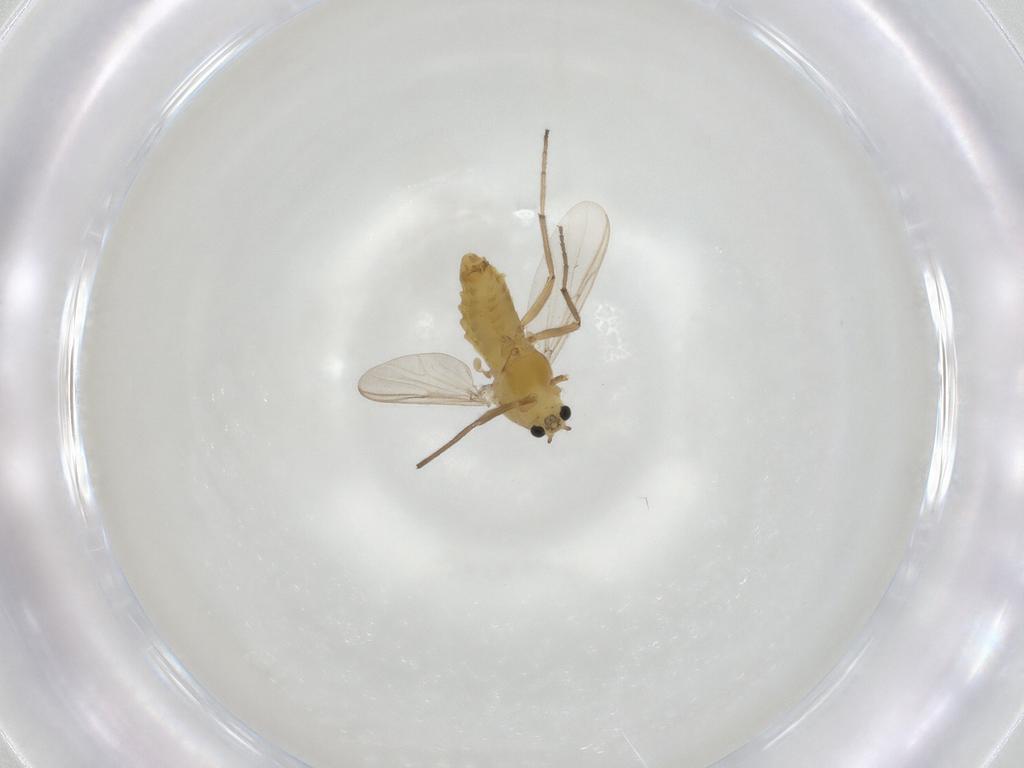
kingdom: Animalia
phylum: Arthropoda
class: Insecta
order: Diptera
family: Chironomidae
